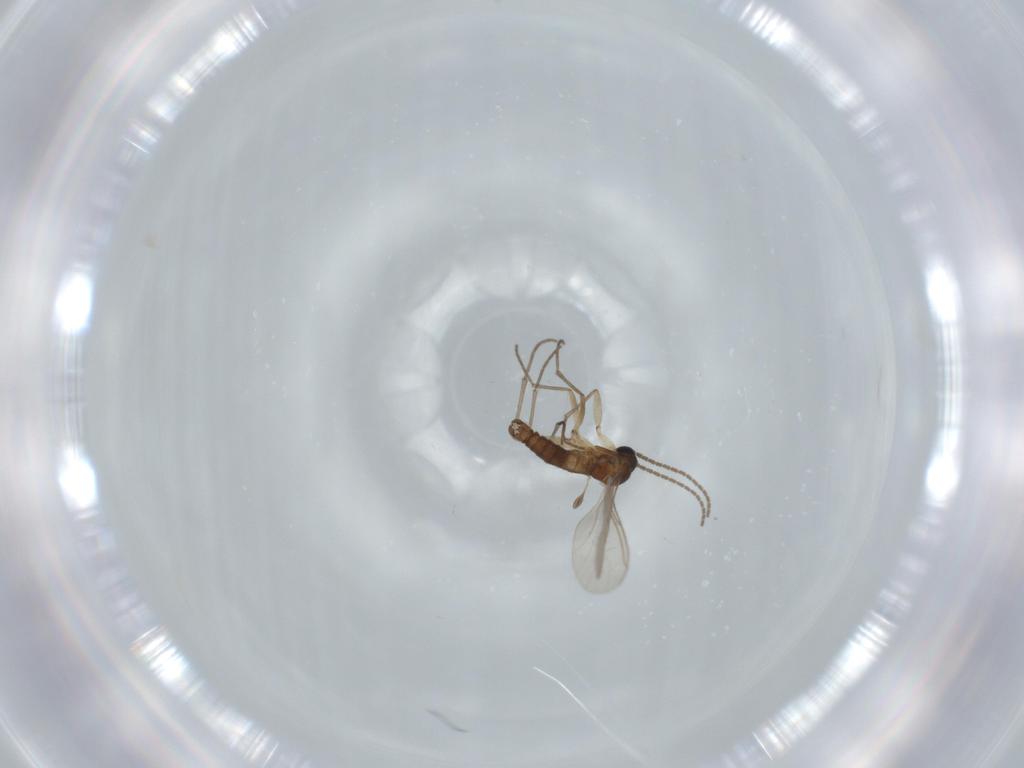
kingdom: Animalia
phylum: Arthropoda
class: Insecta
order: Diptera
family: Sciaridae
